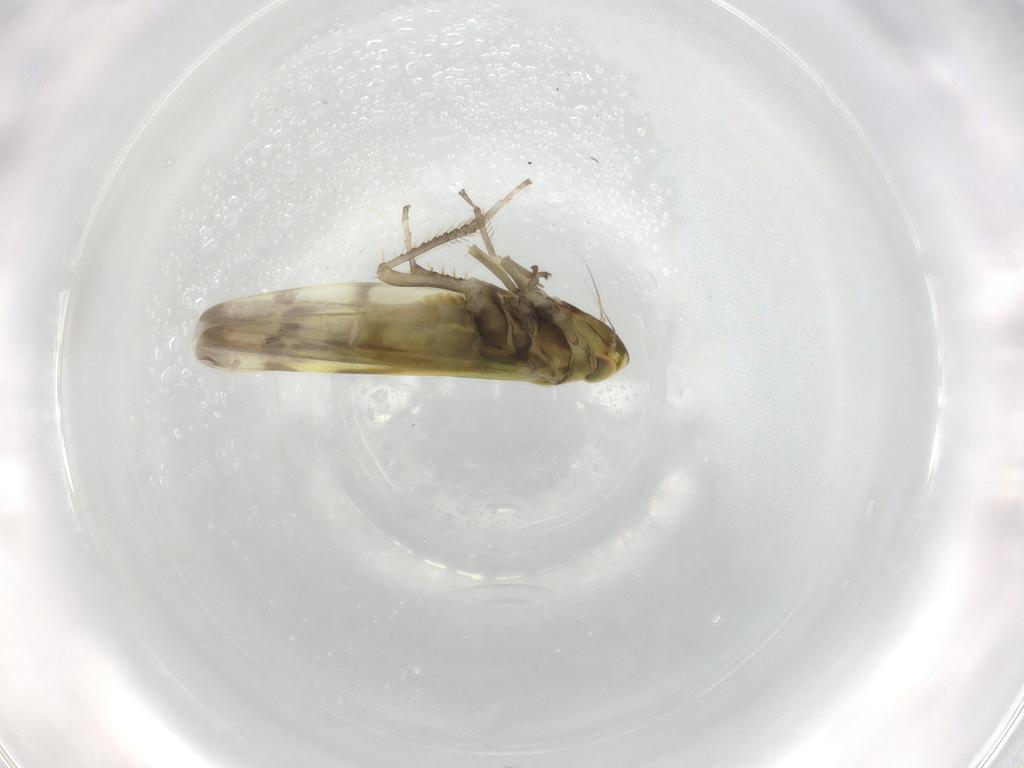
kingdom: Animalia
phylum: Arthropoda
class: Insecta
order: Hemiptera
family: Cicadellidae
